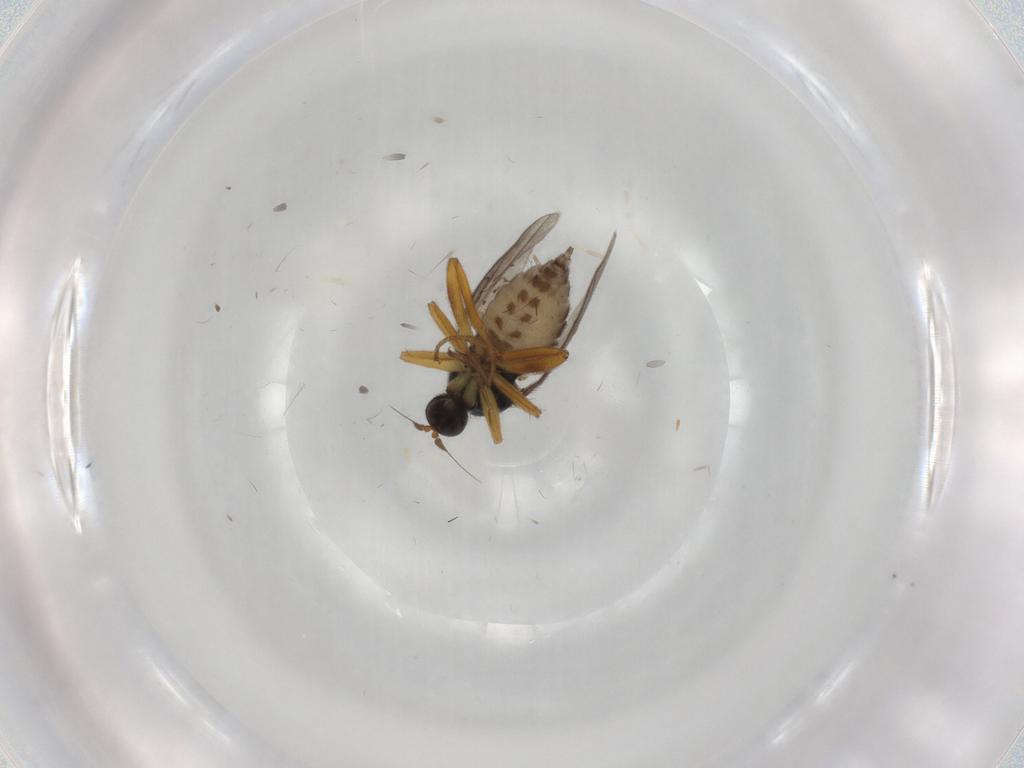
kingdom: Animalia
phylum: Arthropoda
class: Insecta
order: Diptera
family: Hybotidae
